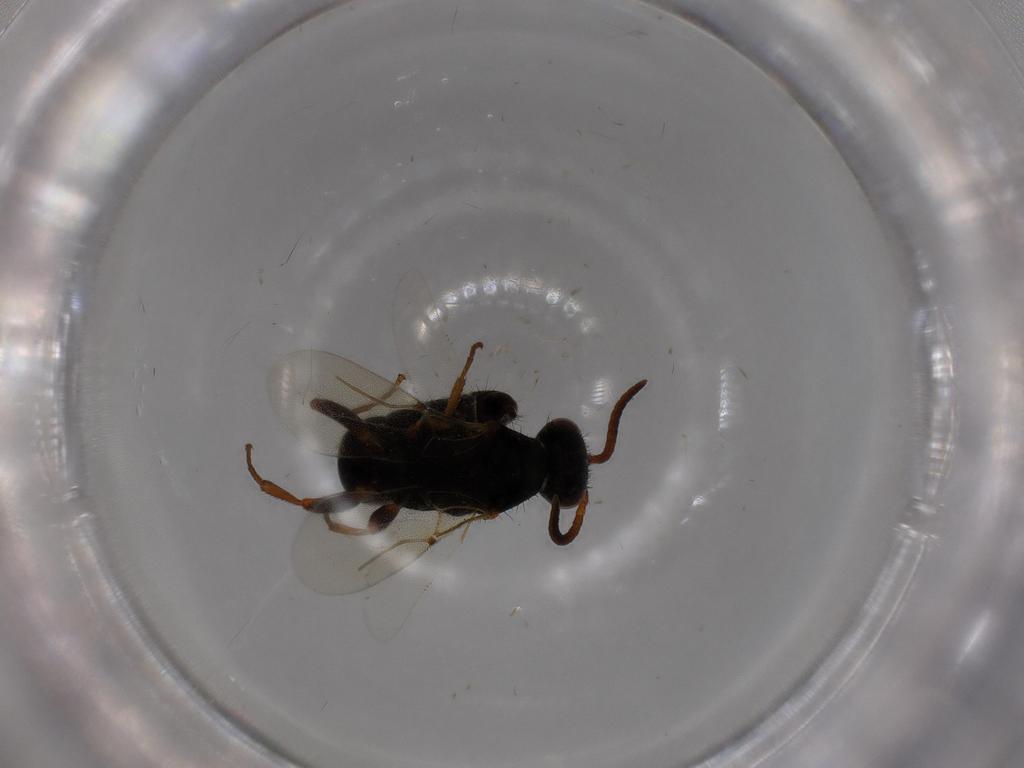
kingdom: Animalia
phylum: Arthropoda
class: Insecta
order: Hymenoptera
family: Bethylidae
